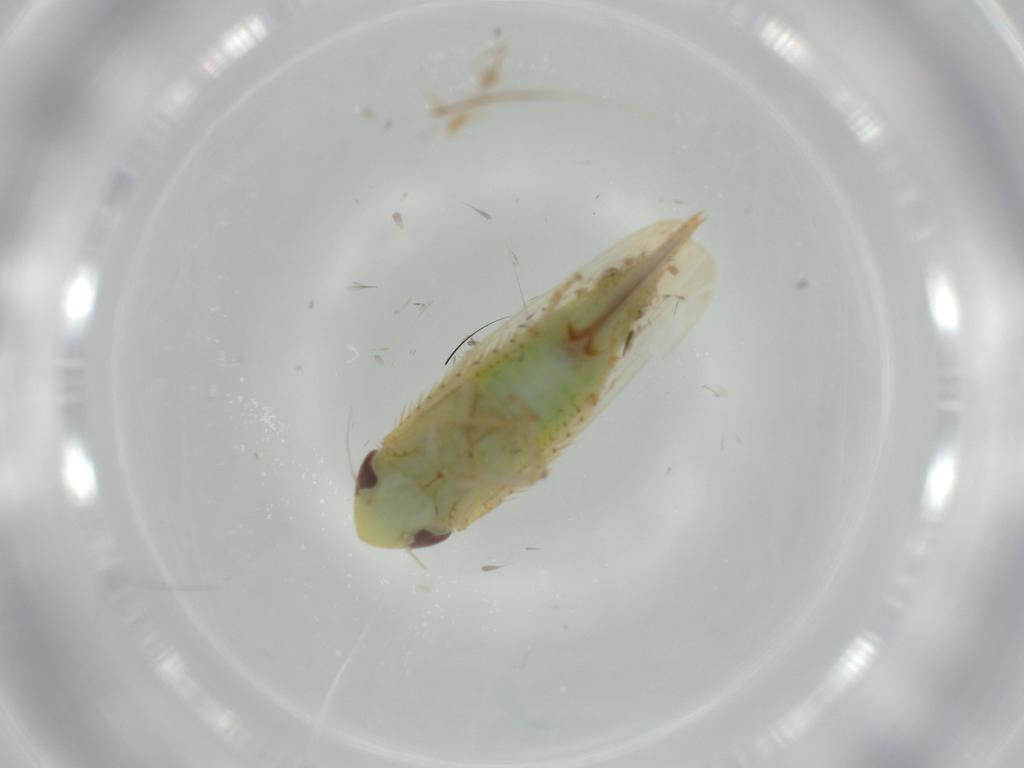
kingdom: Animalia
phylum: Arthropoda
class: Insecta
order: Hemiptera
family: Cicadellidae
